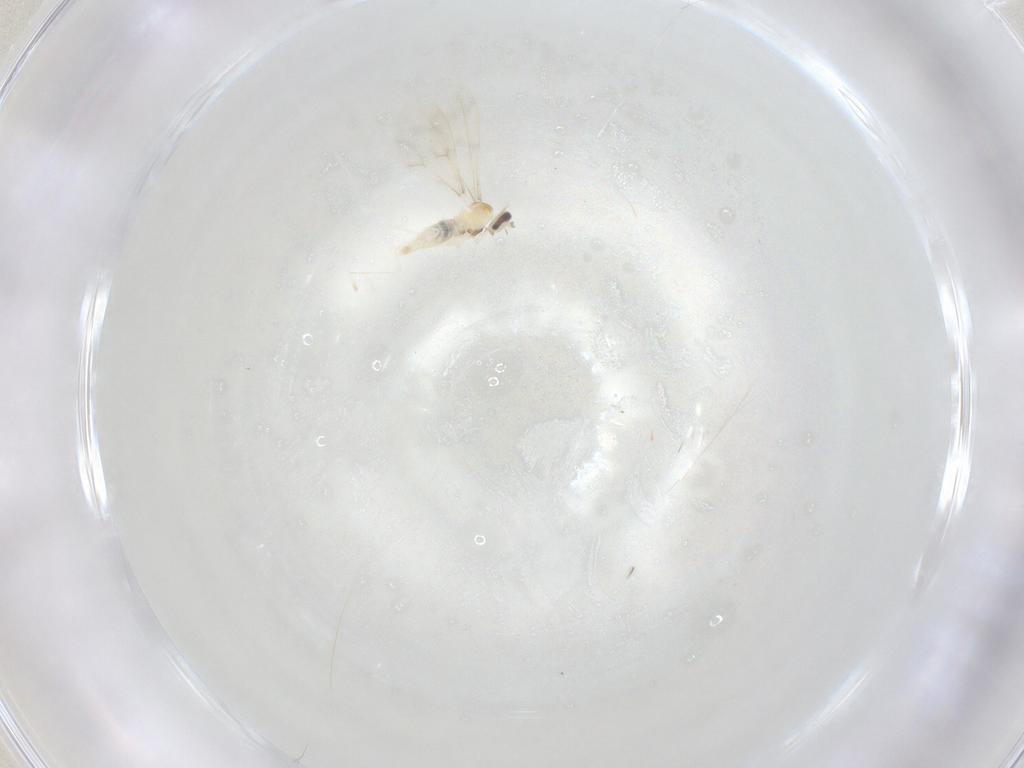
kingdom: Animalia
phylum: Arthropoda
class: Insecta
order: Diptera
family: Cecidomyiidae
